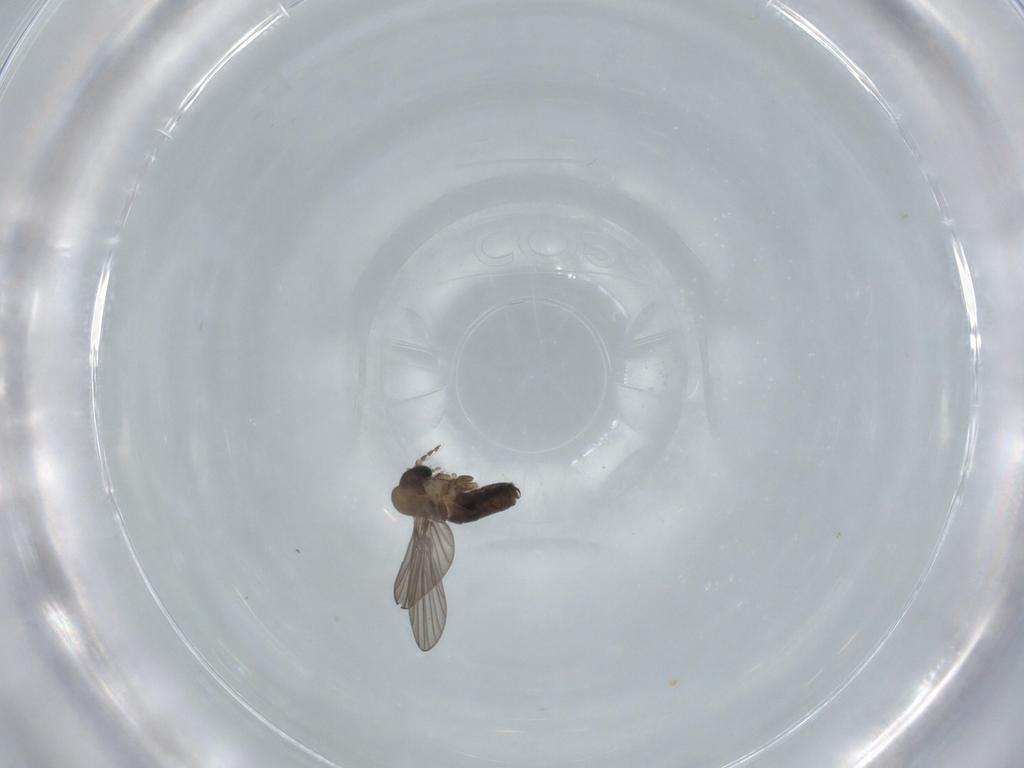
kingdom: Animalia
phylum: Arthropoda
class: Insecta
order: Diptera
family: Psychodidae
